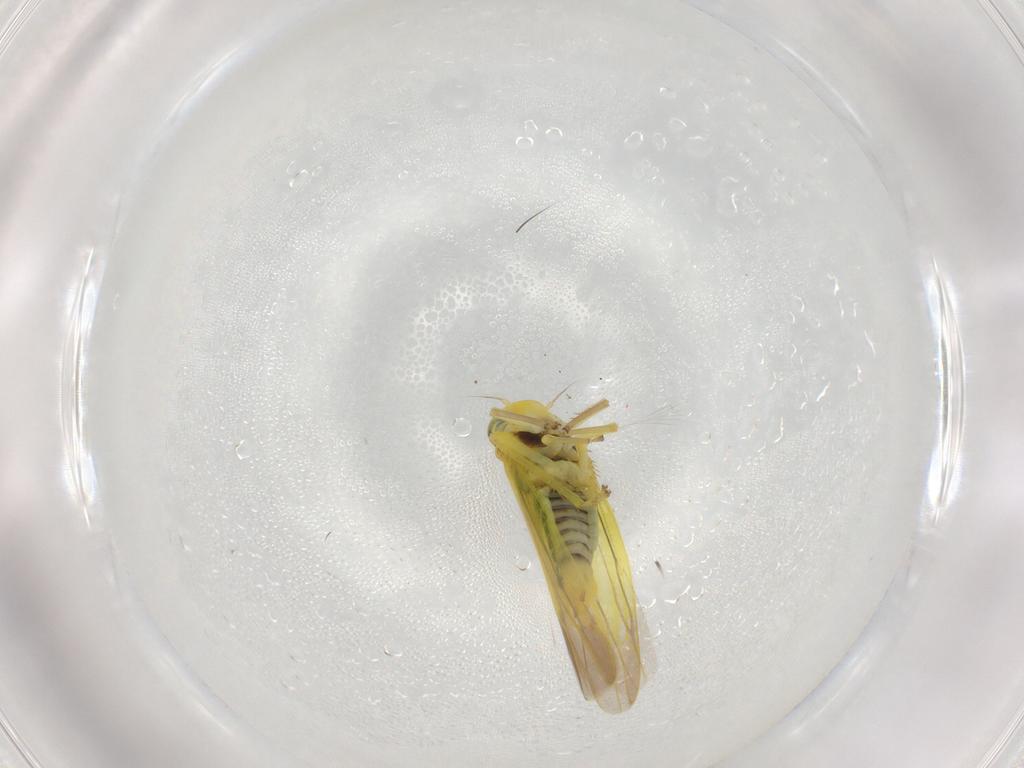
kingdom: Animalia
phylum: Arthropoda
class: Insecta
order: Hemiptera
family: Cicadellidae
